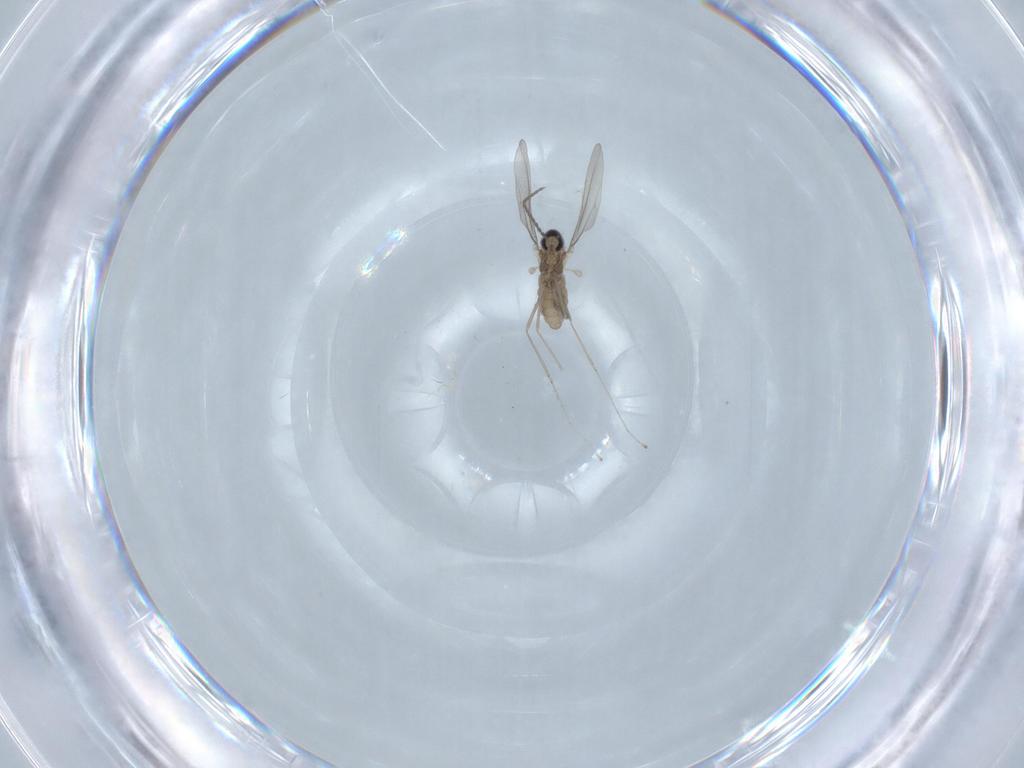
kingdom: Animalia
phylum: Arthropoda
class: Insecta
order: Diptera
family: Cecidomyiidae
